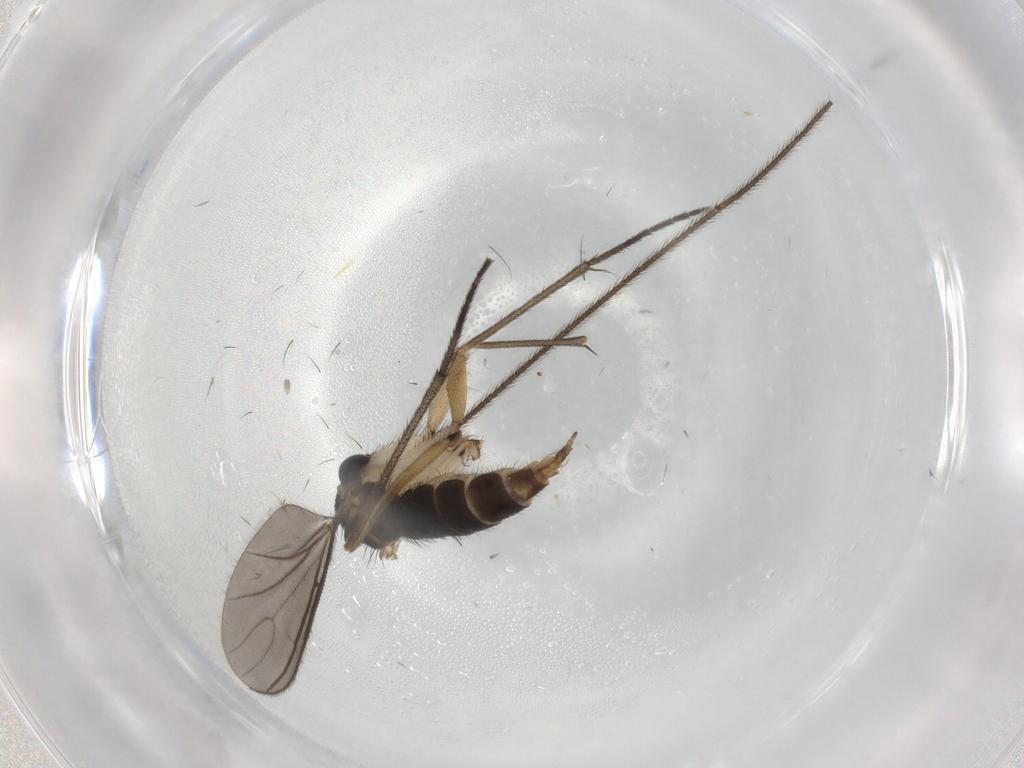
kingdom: Animalia
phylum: Arthropoda
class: Insecta
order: Diptera
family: Sciaridae
